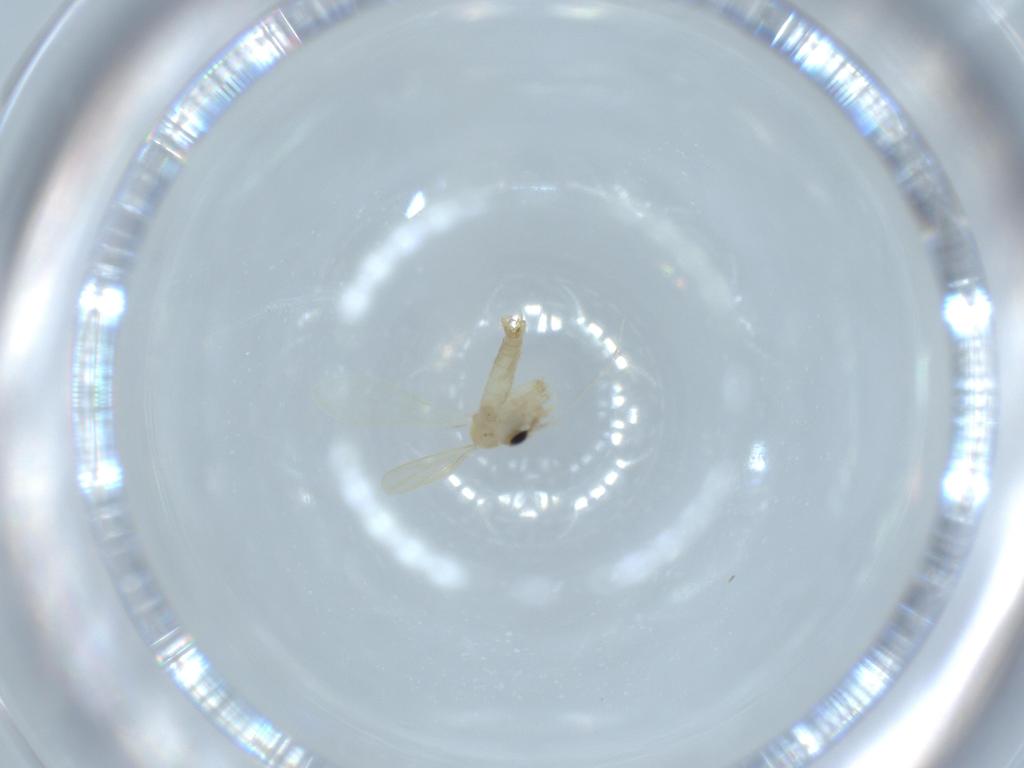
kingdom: Animalia
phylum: Arthropoda
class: Insecta
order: Diptera
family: Psychodidae
